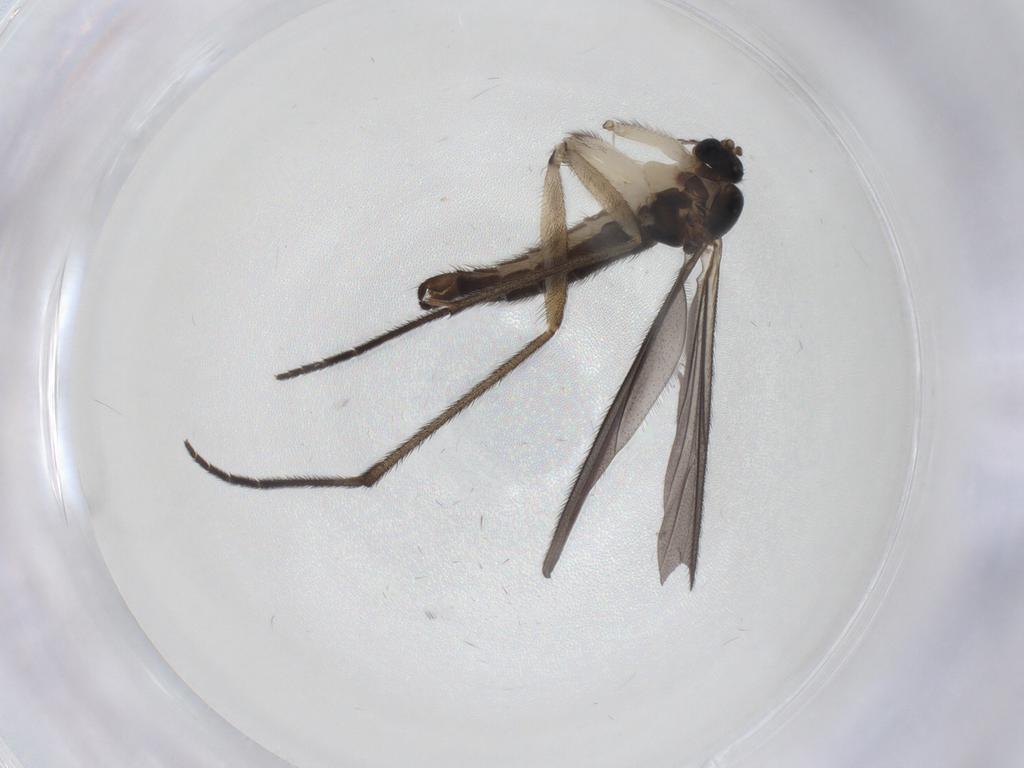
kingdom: Animalia
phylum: Arthropoda
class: Insecta
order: Diptera
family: Sciaridae
